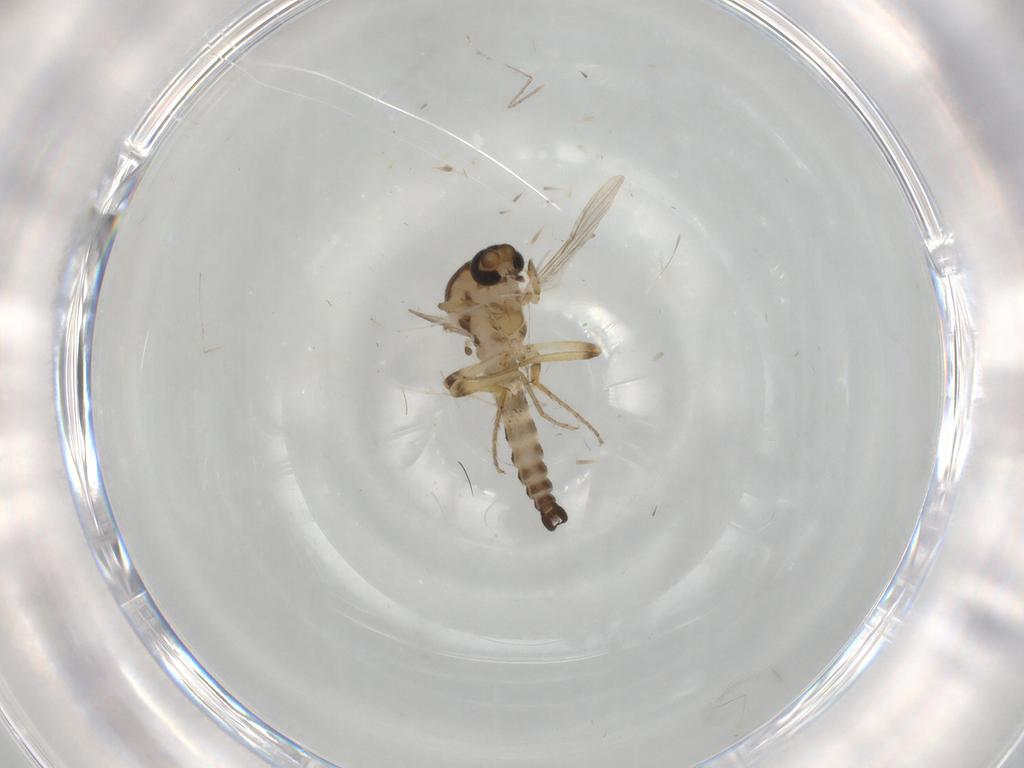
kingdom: Animalia
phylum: Arthropoda
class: Insecta
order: Diptera
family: Ceratopogonidae
